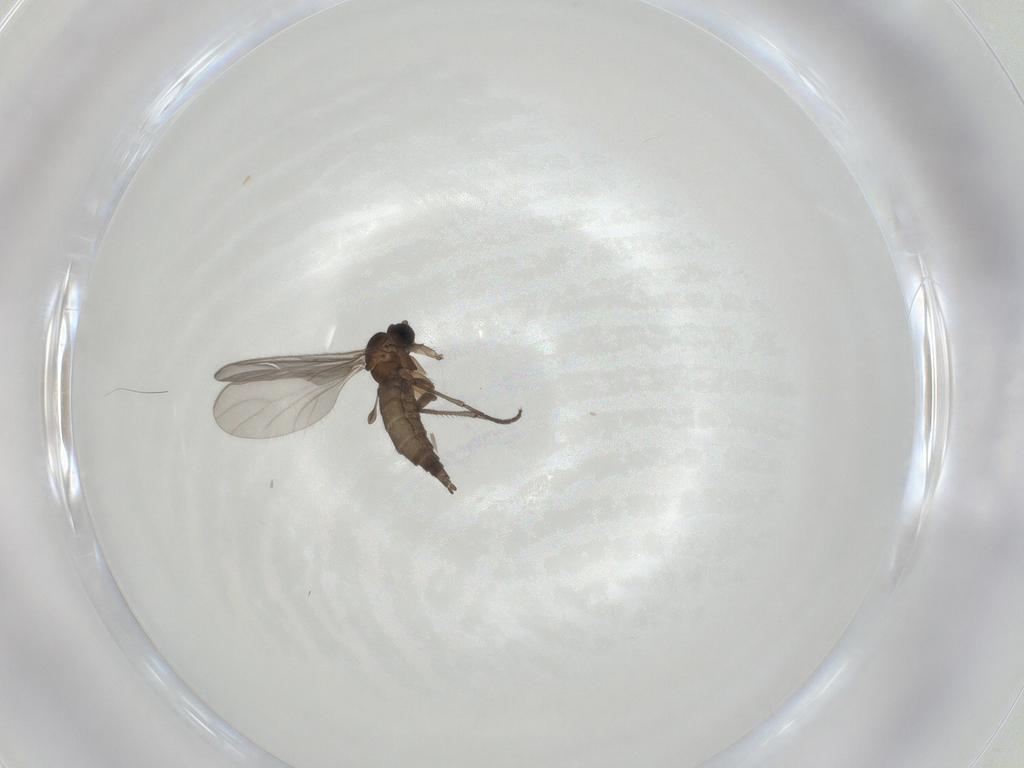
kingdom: Animalia
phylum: Arthropoda
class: Insecta
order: Diptera
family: Sciaridae
